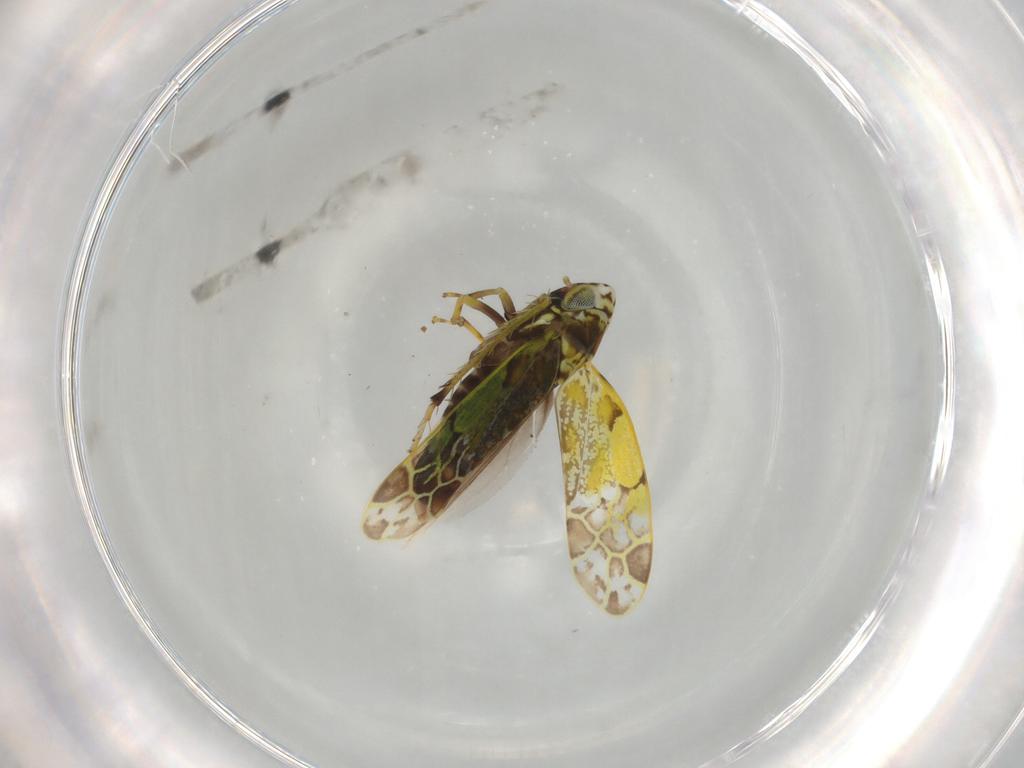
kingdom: Animalia
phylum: Arthropoda
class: Insecta
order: Hemiptera
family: Cicadellidae
